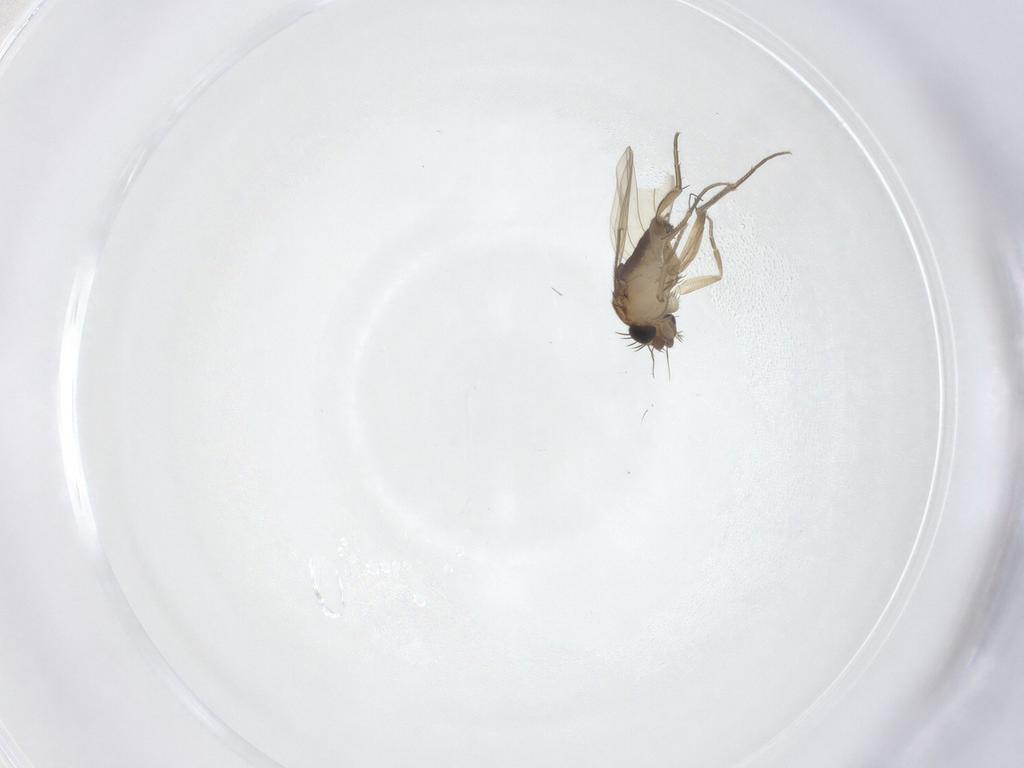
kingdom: Animalia
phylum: Arthropoda
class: Insecta
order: Diptera
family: Phoridae
